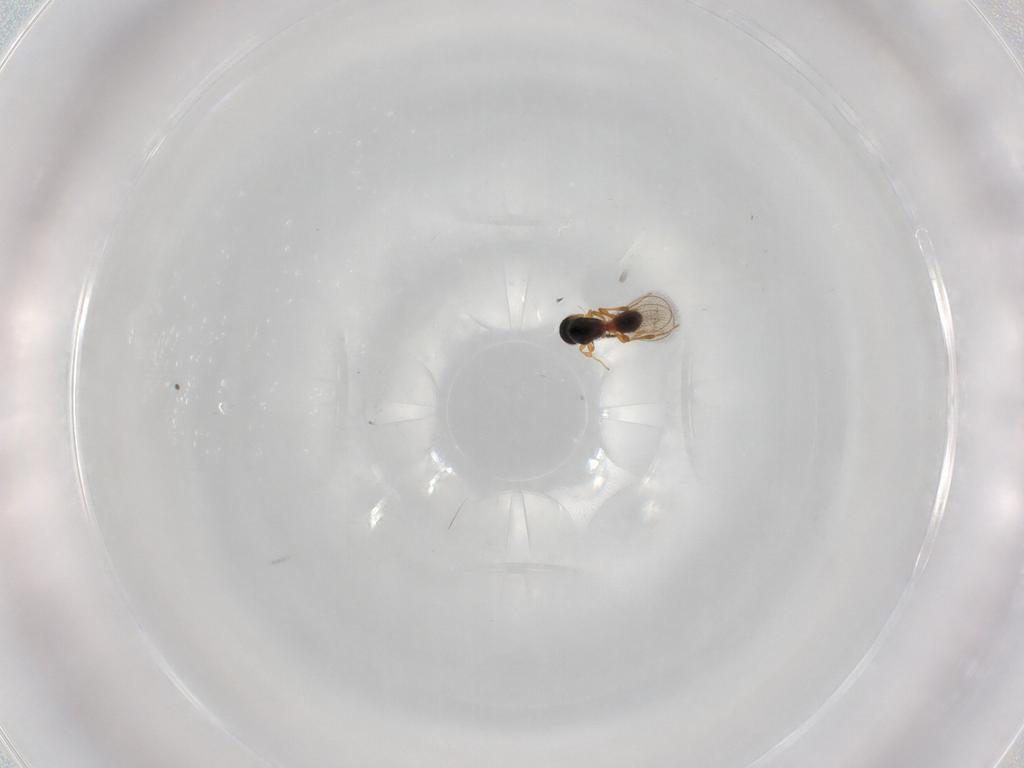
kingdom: Animalia
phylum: Arthropoda
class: Insecta
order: Hymenoptera
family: Platygastridae
